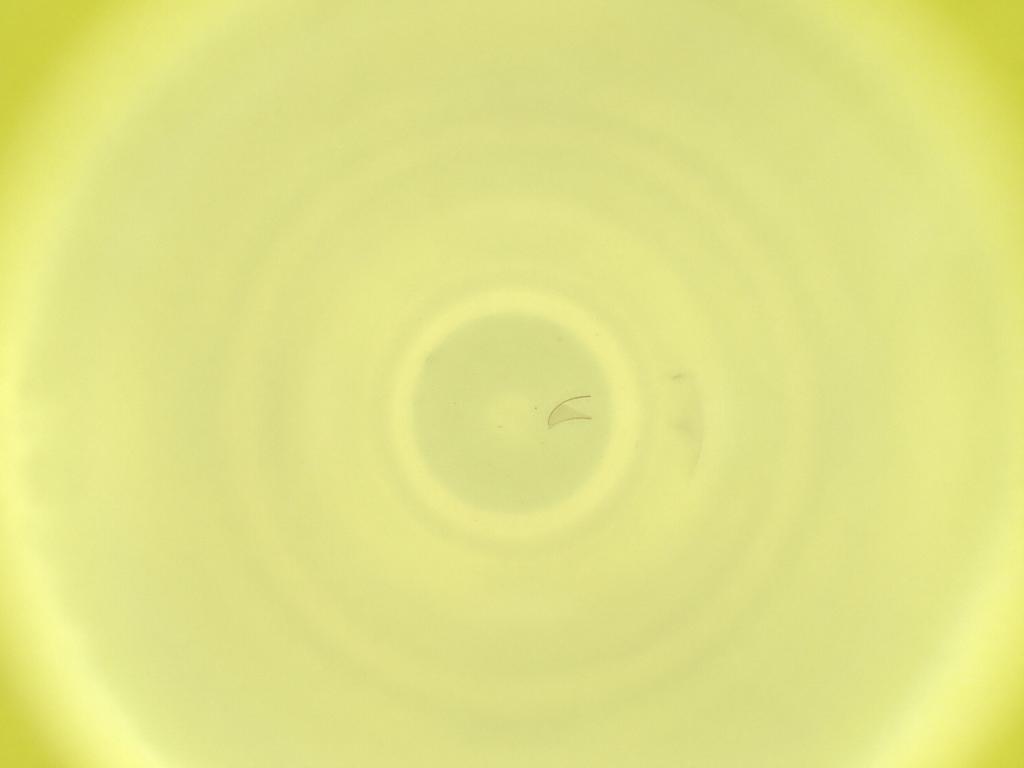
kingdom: Animalia
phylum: Arthropoda
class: Insecta
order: Diptera
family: Cecidomyiidae
